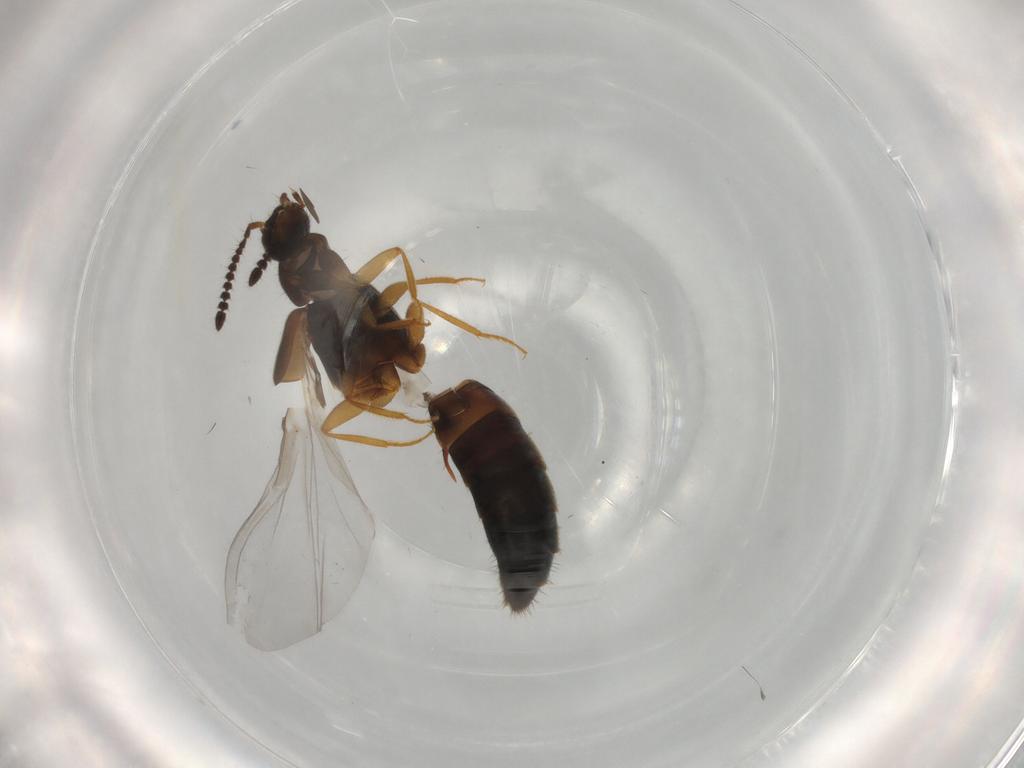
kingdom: Animalia
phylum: Arthropoda
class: Insecta
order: Coleoptera
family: Staphylinidae
